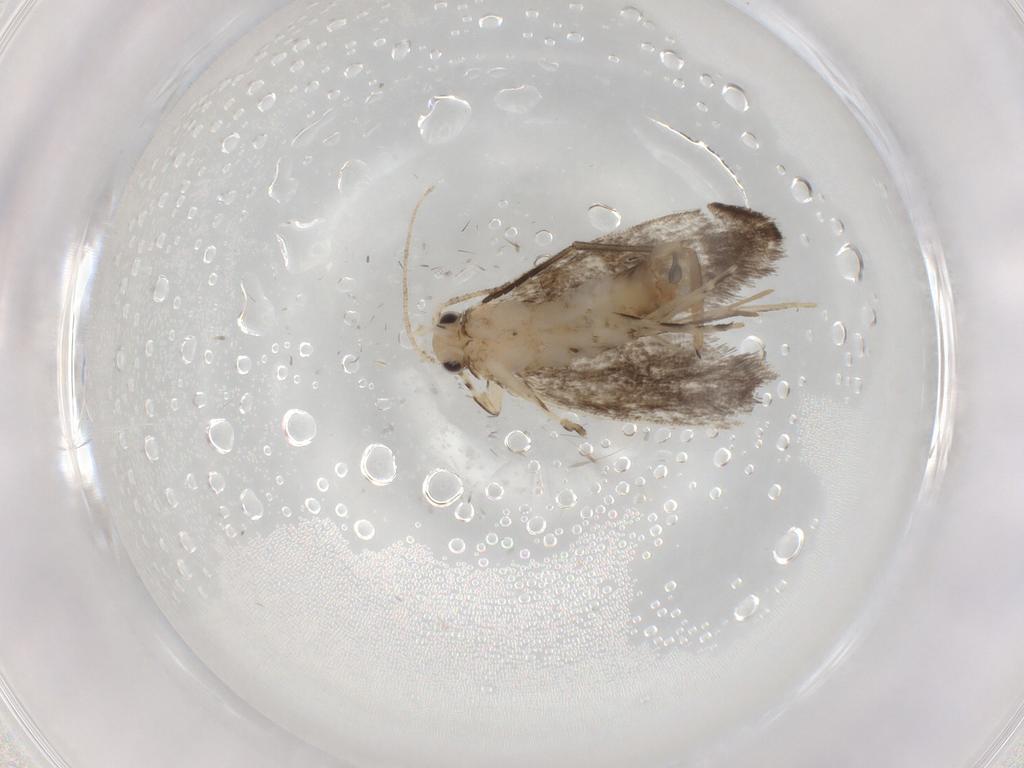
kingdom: Animalia
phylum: Arthropoda
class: Insecta
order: Lepidoptera
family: Tineidae
